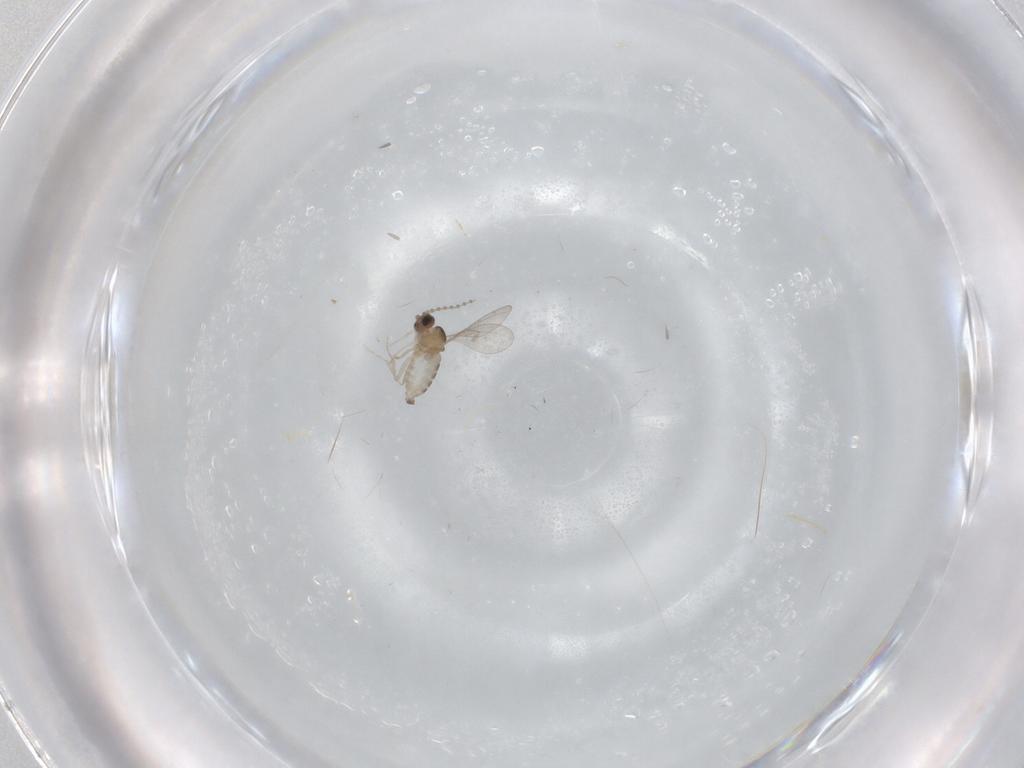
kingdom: Animalia
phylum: Arthropoda
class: Insecta
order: Diptera
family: Cecidomyiidae
